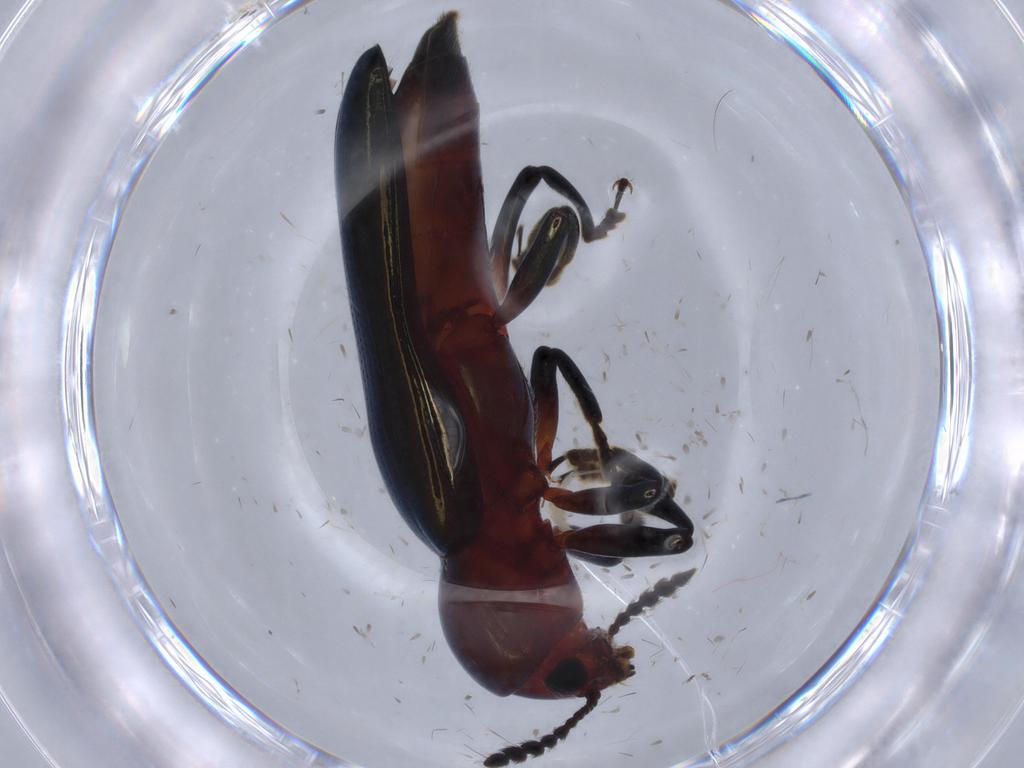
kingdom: Animalia
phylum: Arthropoda
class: Insecta
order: Coleoptera
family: Erotylidae
